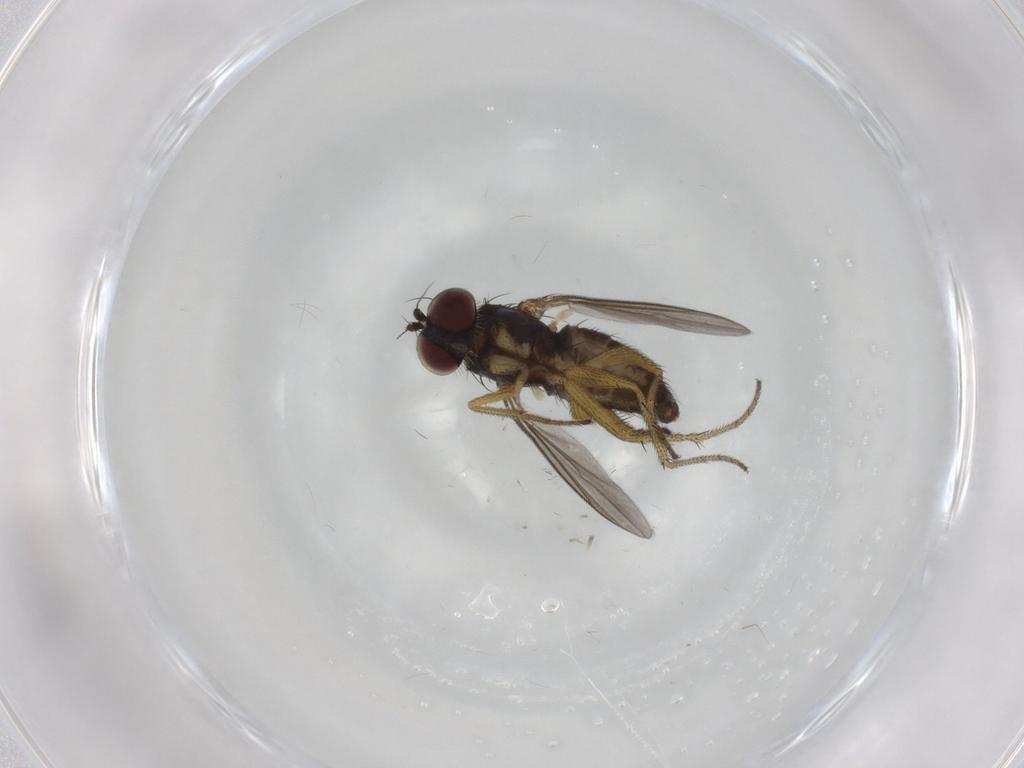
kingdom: Animalia
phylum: Arthropoda
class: Insecta
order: Diptera
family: Dolichopodidae
